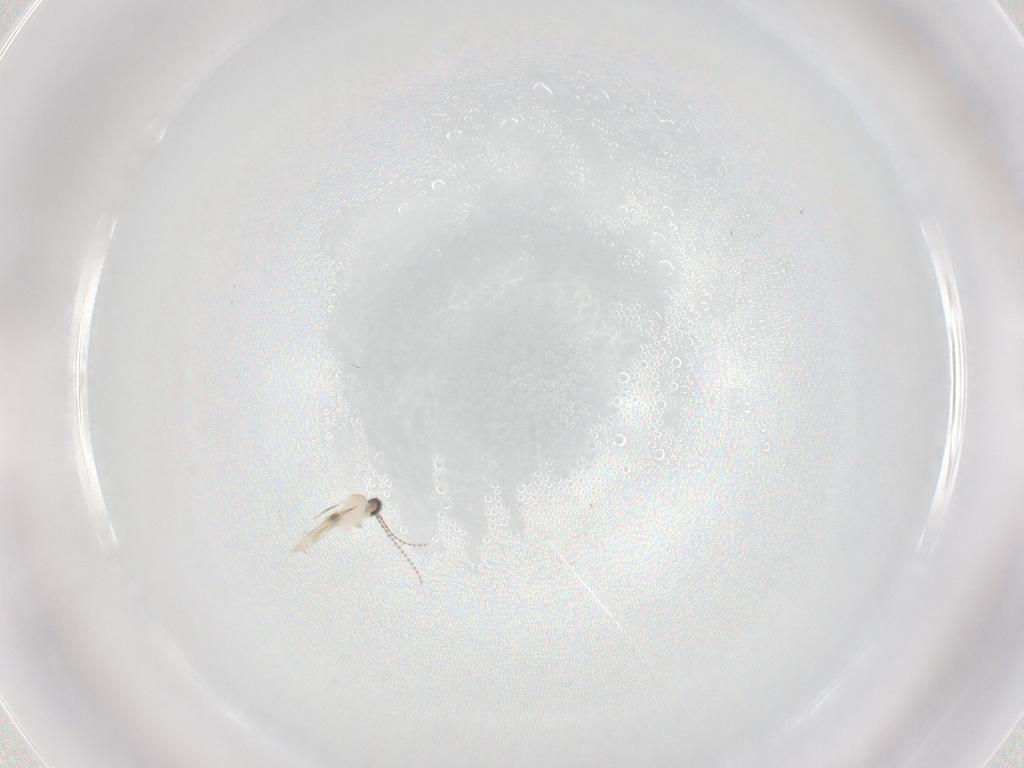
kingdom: Animalia
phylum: Arthropoda
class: Insecta
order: Diptera
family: Cecidomyiidae
